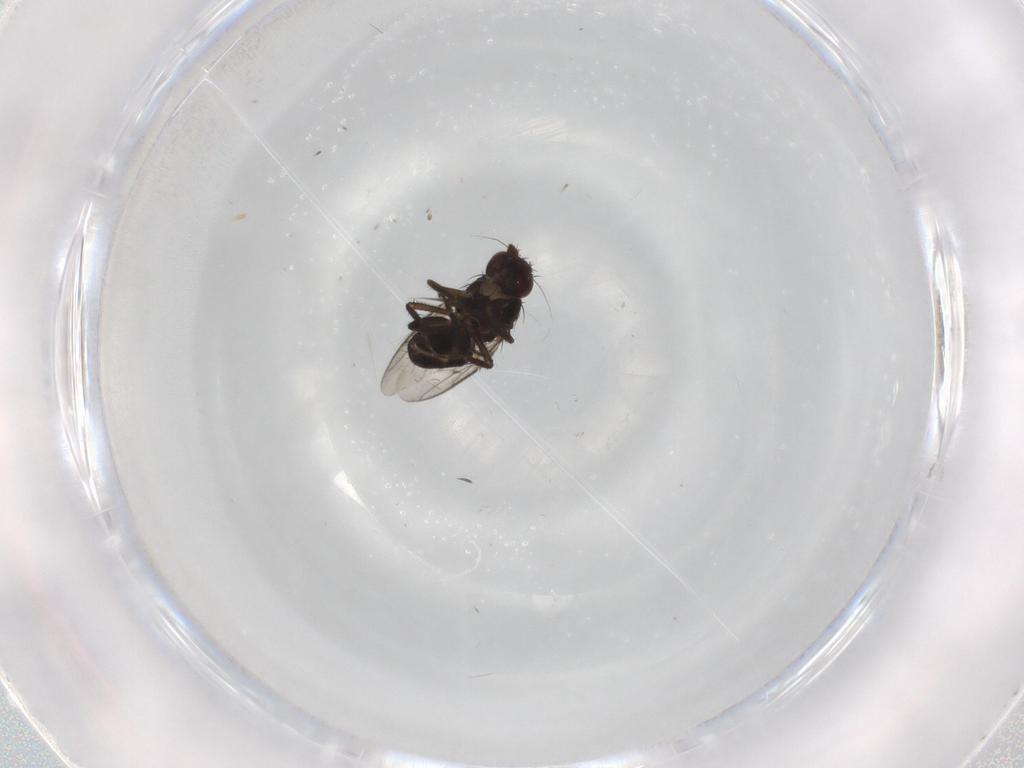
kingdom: Animalia
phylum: Arthropoda
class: Insecta
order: Diptera
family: Sphaeroceridae
